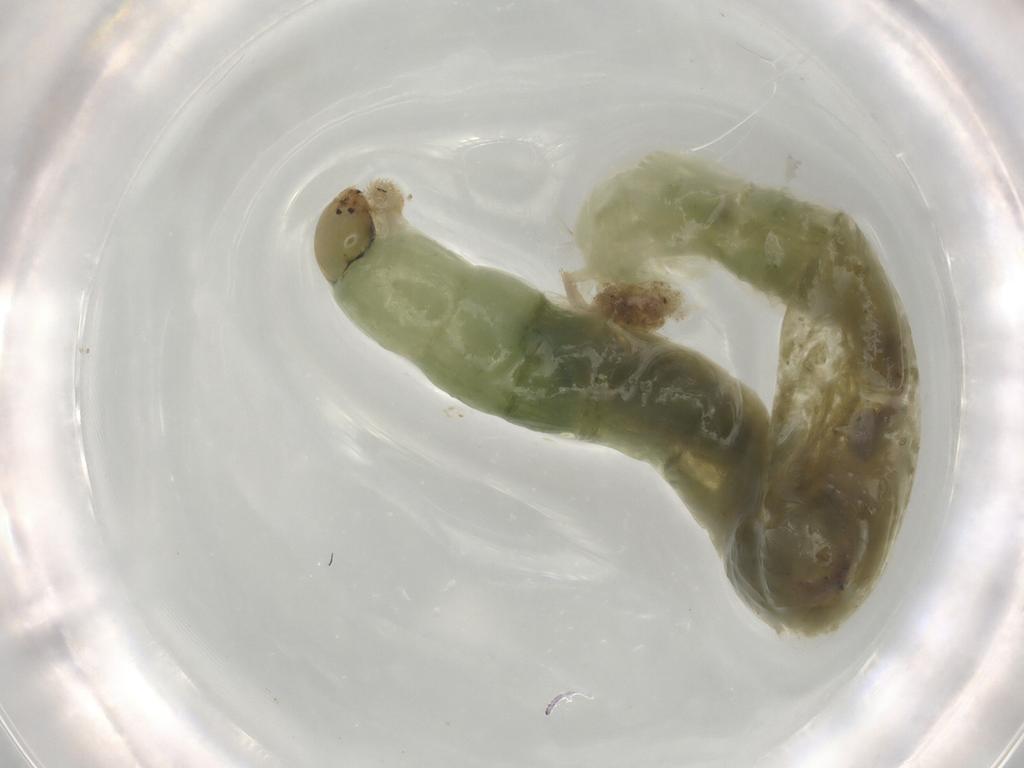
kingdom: Animalia
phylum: Arthropoda
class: Insecta
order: Diptera
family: Chironomidae
